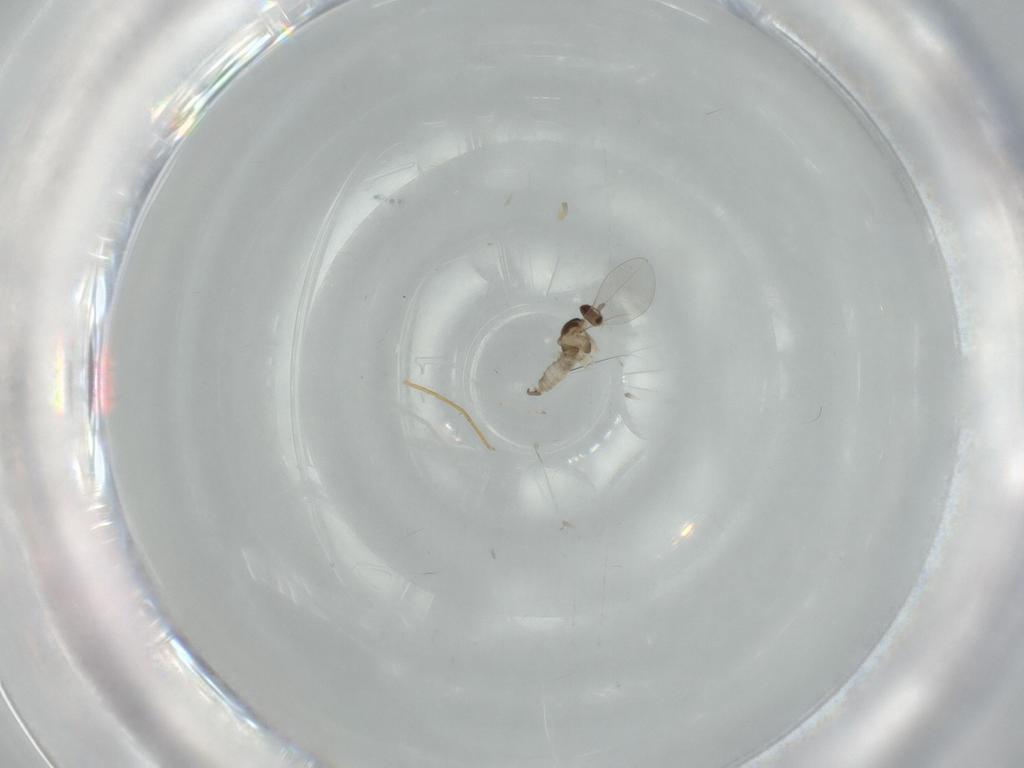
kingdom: Animalia
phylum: Arthropoda
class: Insecta
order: Diptera
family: Cecidomyiidae
